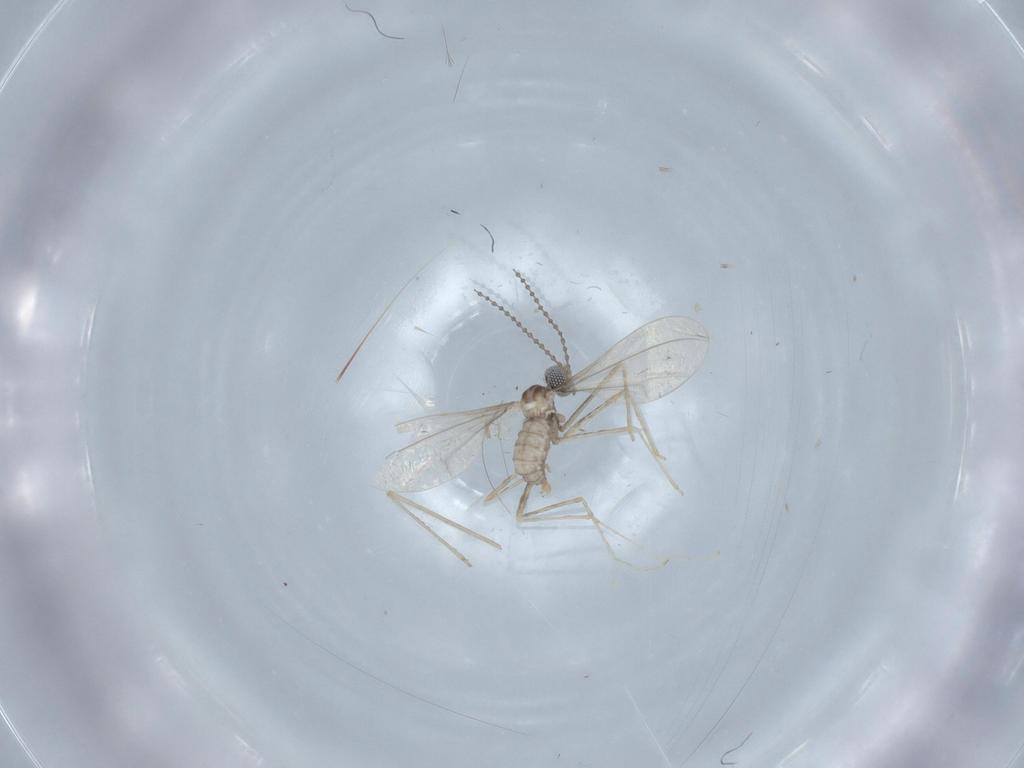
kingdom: Animalia
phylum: Arthropoda
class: Insecta
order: Diptera
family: Cecidomyiidae
